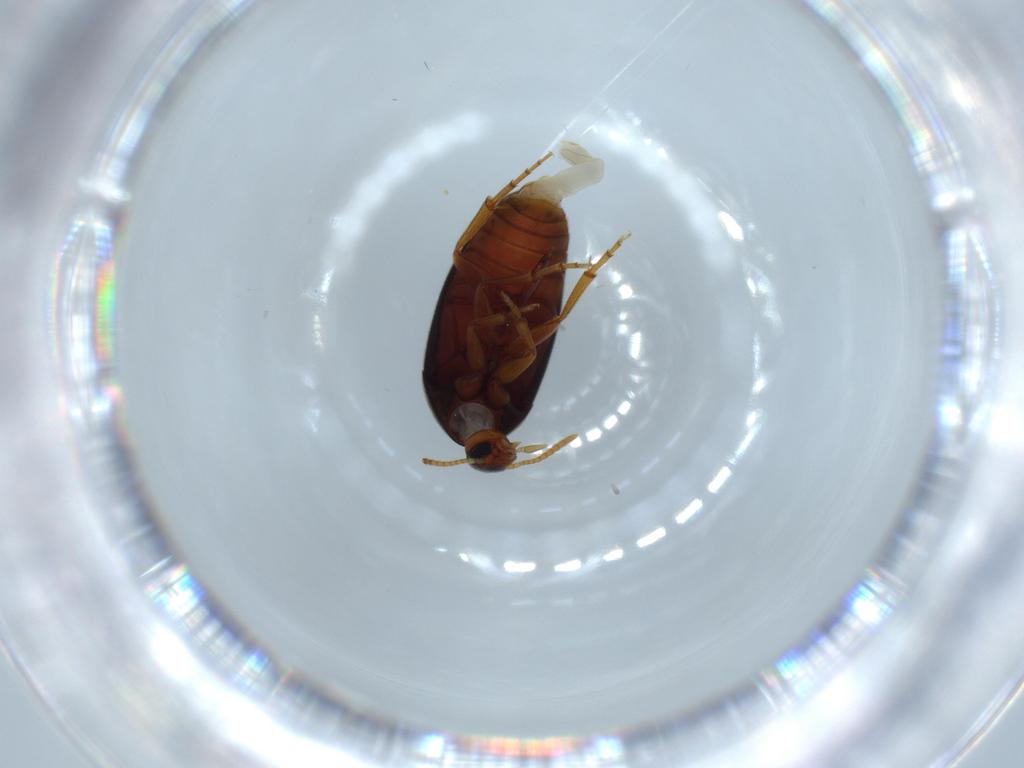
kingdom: Animalia
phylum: Arthropoda
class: Insecta
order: Coleoptera
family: Scraptiidae
